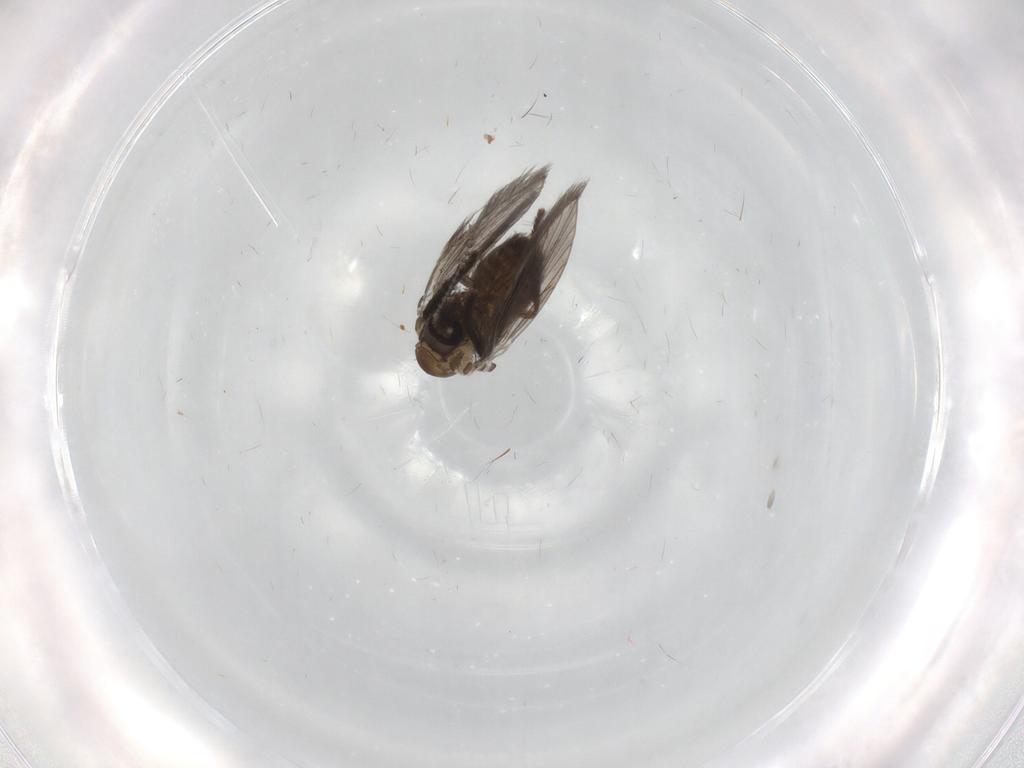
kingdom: Animalia
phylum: Arthropoda
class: Insecta
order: Diptera
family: Psychodidae
